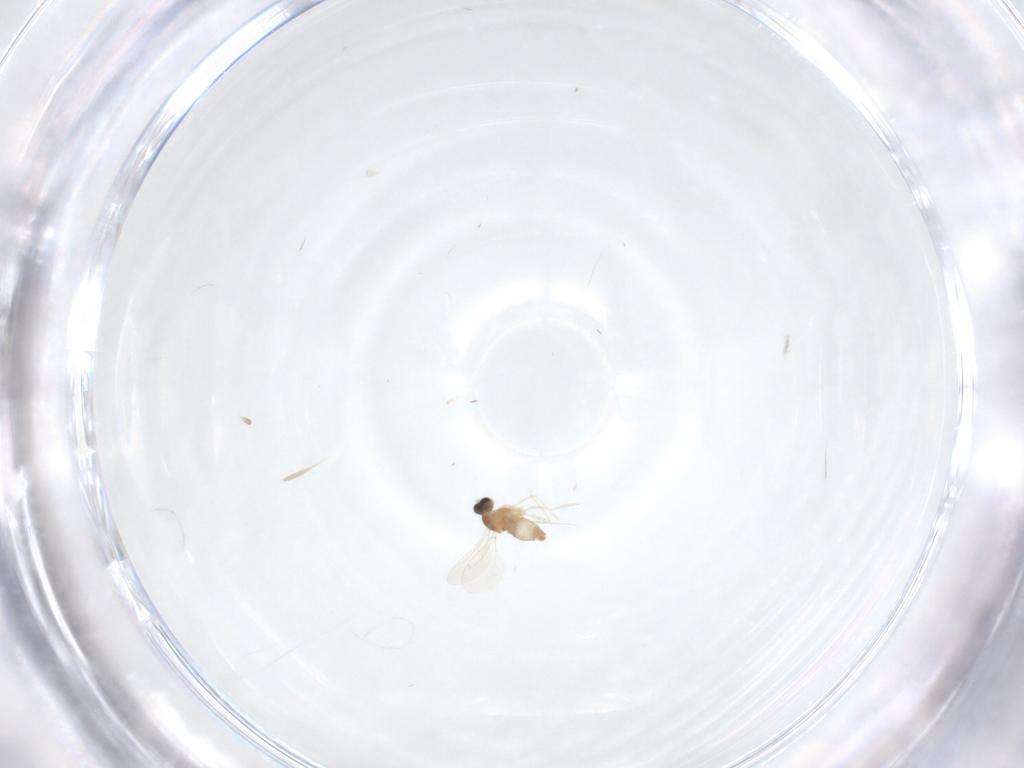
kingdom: Animalia
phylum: Arthropoda
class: Insecta
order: Diptera
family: Cecidomyiidae
